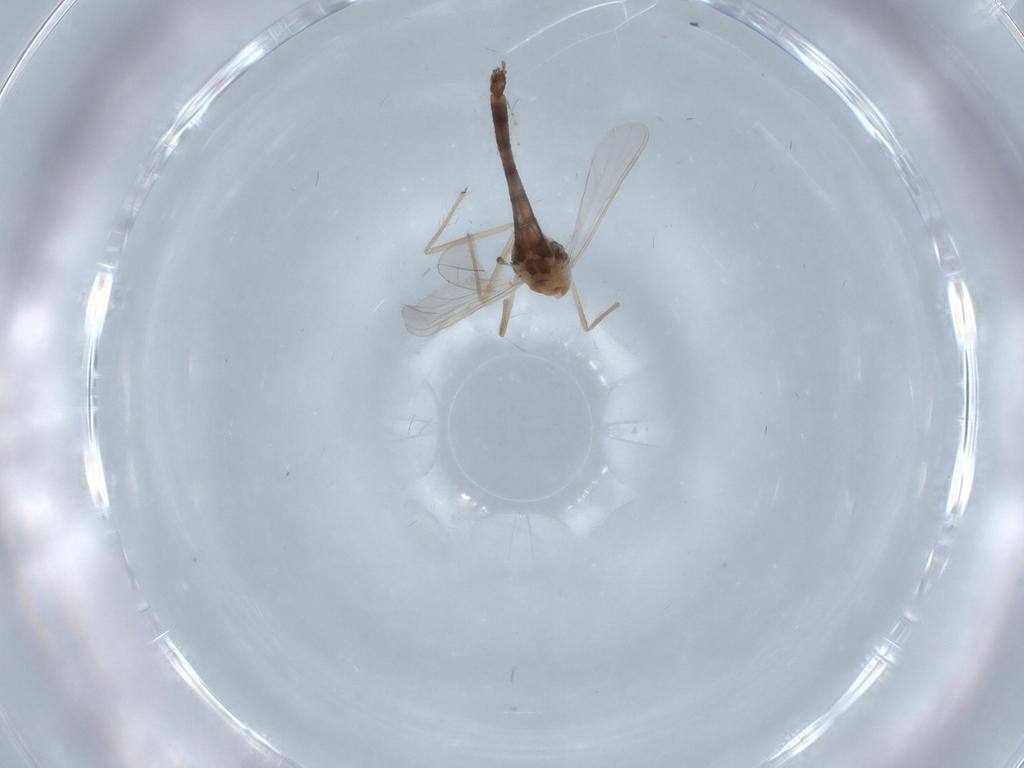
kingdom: Animalia
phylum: Arthropoda
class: Insecta
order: Diptera
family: Chironomidae
